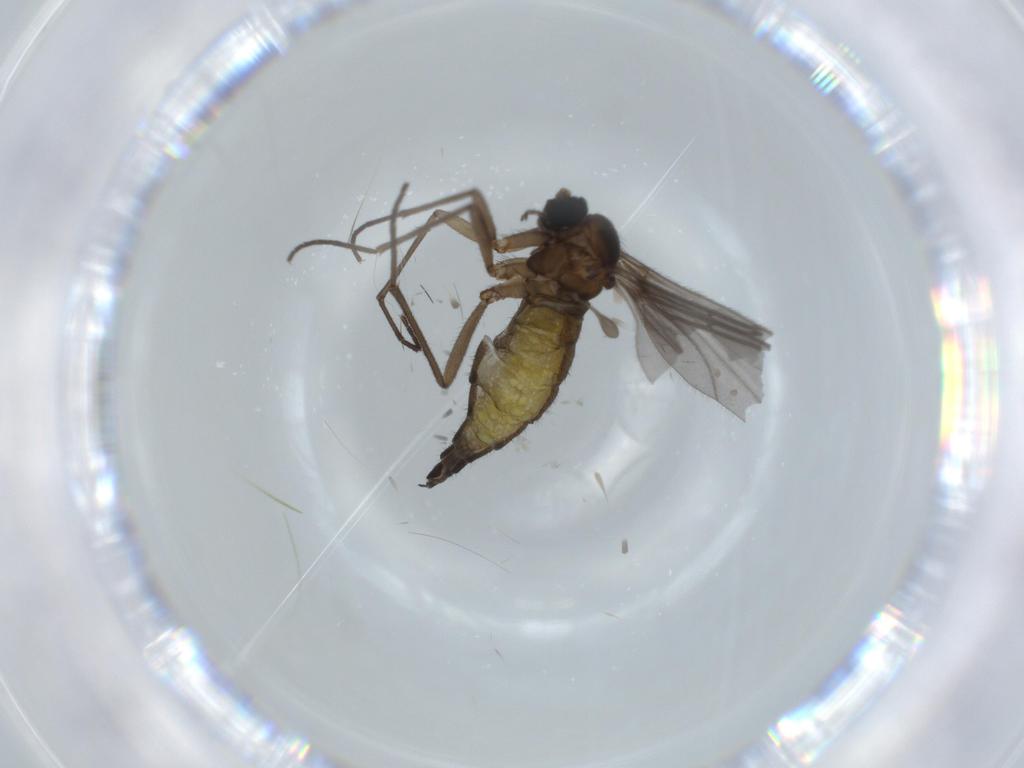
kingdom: Animalia
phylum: Arthropoda
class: Insecta
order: Diptera
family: Sciaridae
